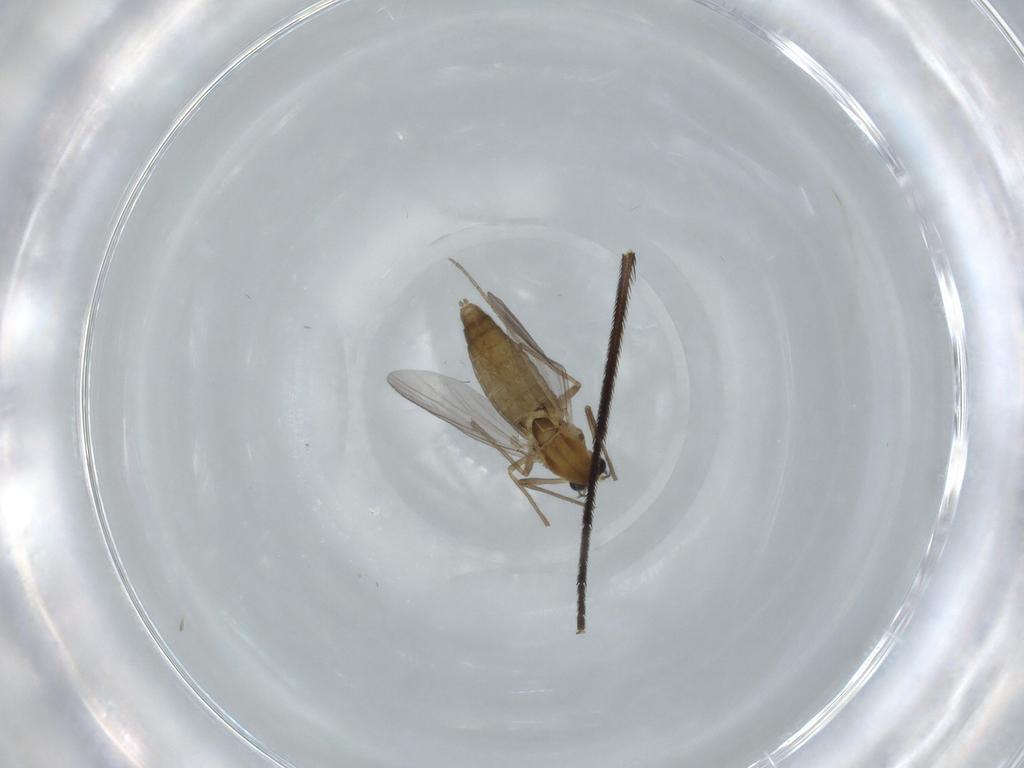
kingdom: Animalia
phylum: Arthropoda
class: Insecta
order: Diptera
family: Chironomidae
